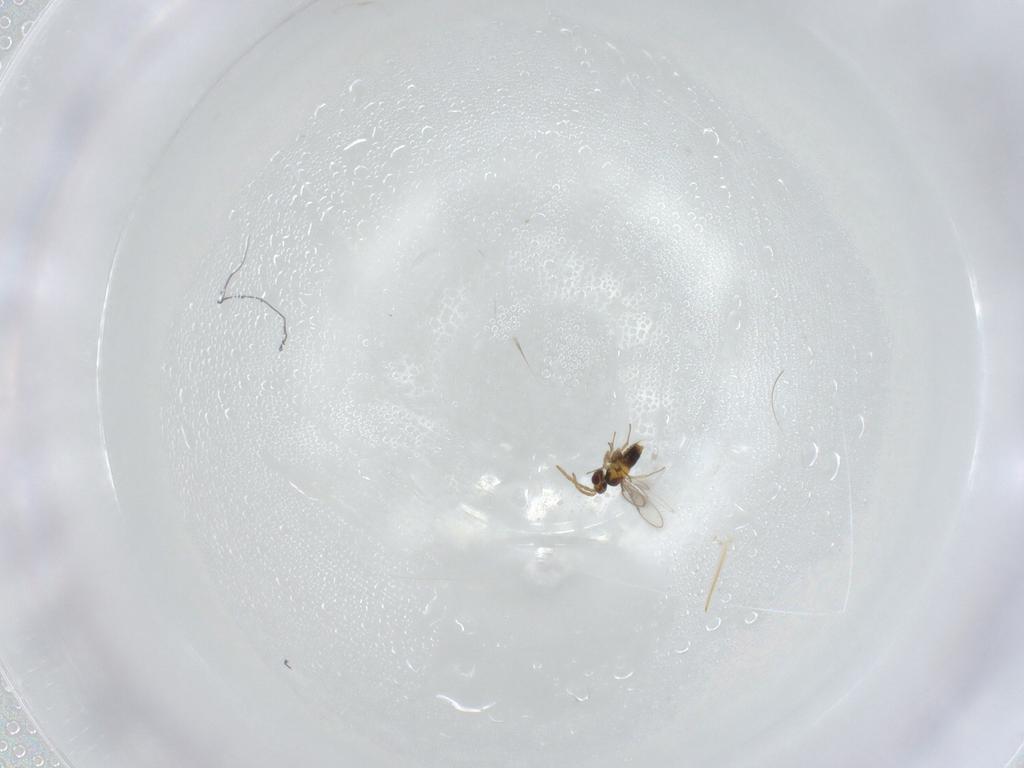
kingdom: Animalia
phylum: Arthropoda
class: Insecta
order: Hymenoptera
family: Aphelinidae
